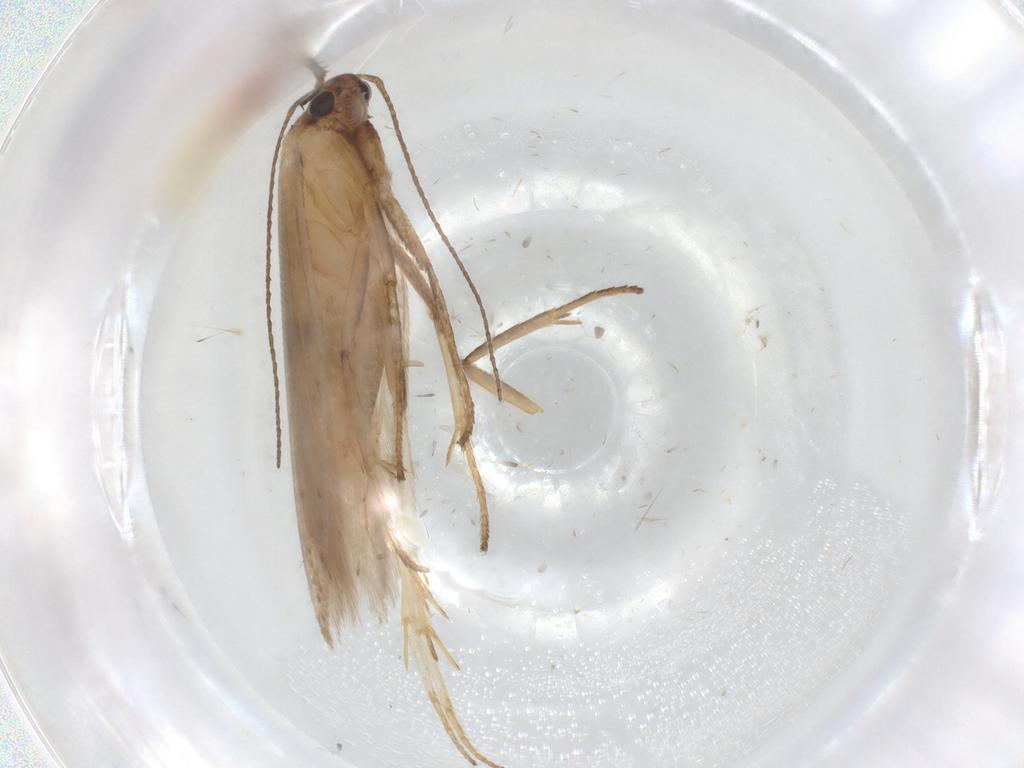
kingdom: Animalia
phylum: Arthropoda
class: Insecta
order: Lepidoptera
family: Gelechiidae
